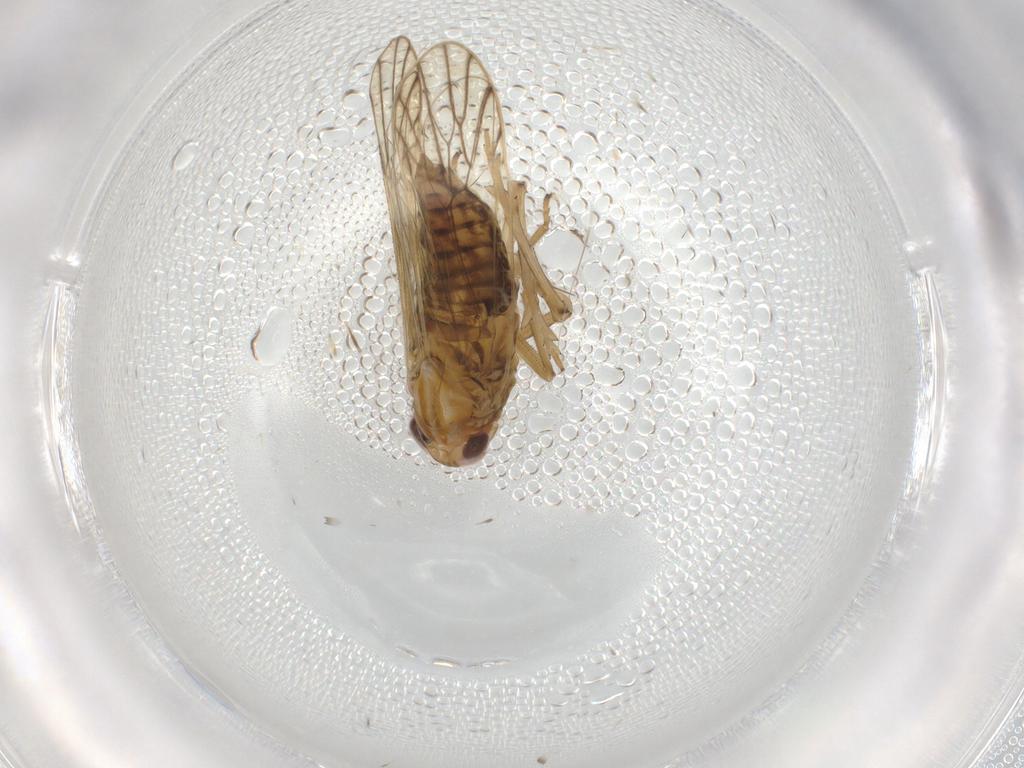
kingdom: Animalia
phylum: Arthropoda
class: Insecta
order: Hemiptera
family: Delphacidae
